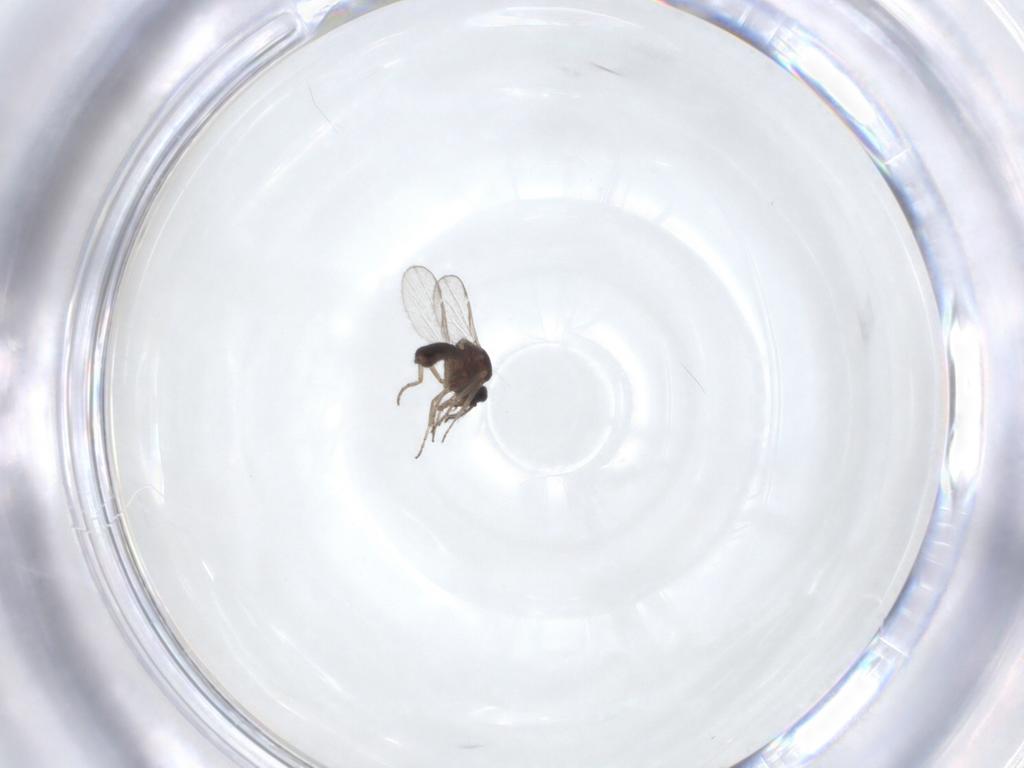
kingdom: Animalia
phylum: Arthropoda
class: Insecta
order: Diptera
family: Ceratopogonidae
